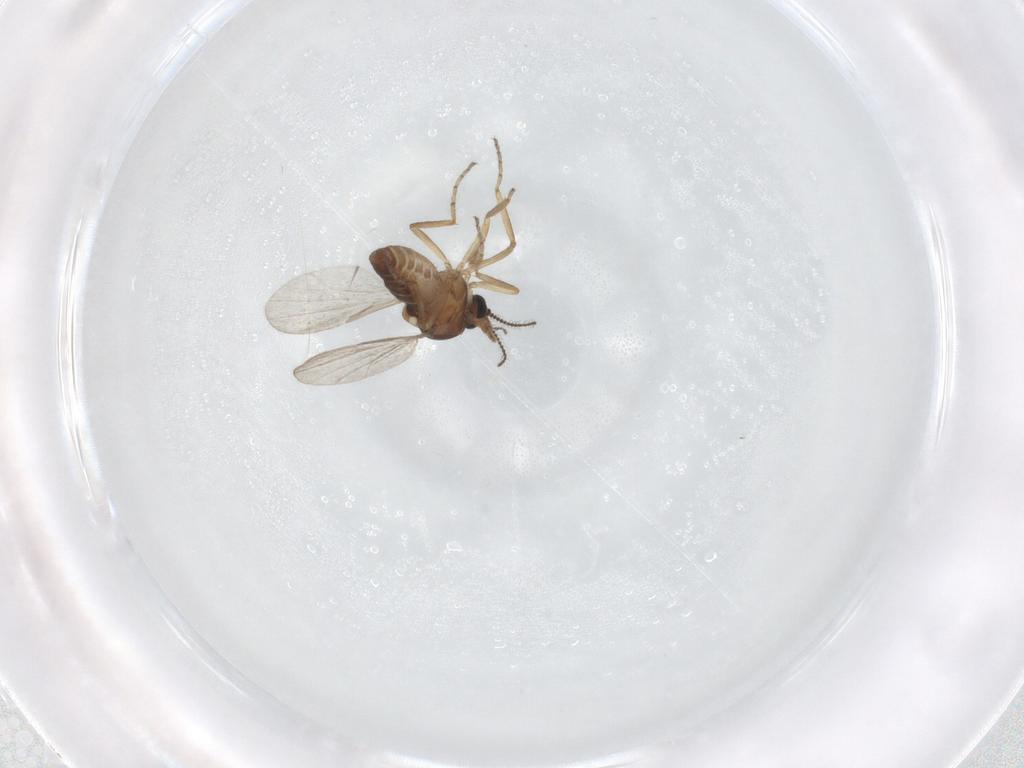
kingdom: Animalia
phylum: Arthropoda
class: Insecta
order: Diptera
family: Ceratopogonidae
